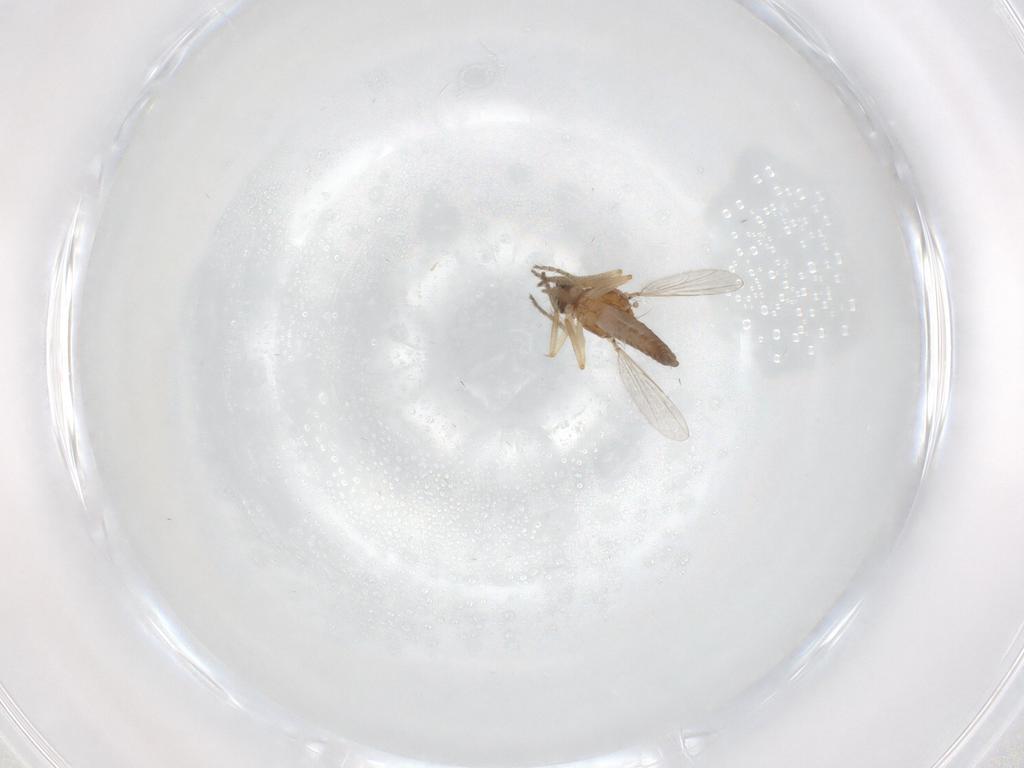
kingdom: Animalia
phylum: Arthropoda
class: Insecta
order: Diptera
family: Ceratopogonidae
